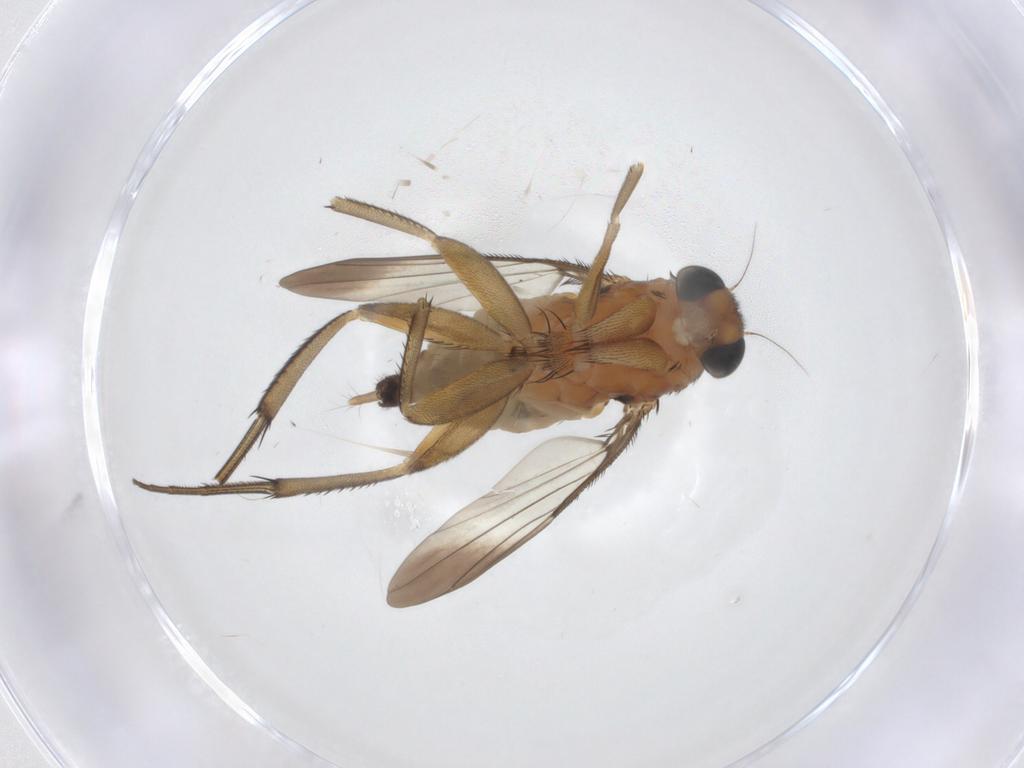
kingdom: Animalia
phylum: Arthropoda
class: Insecta
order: Diptera
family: Phoridae
